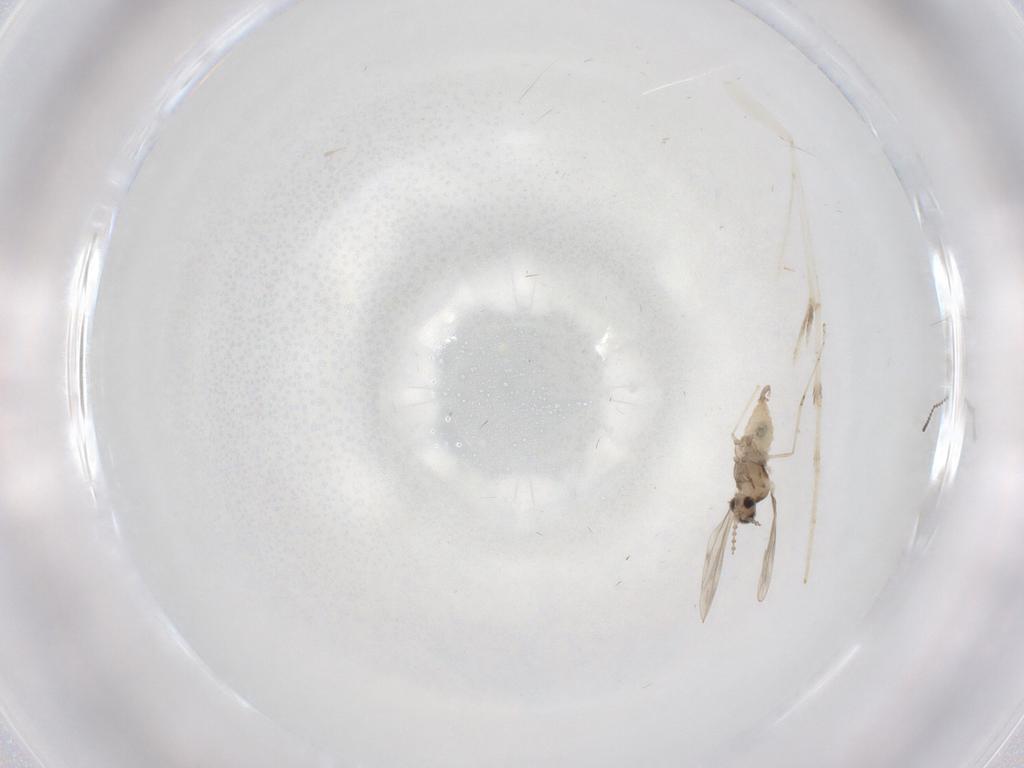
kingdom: Animalia
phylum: Arthropoda
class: Insecta
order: Diptera
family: Cecidomyiidae
